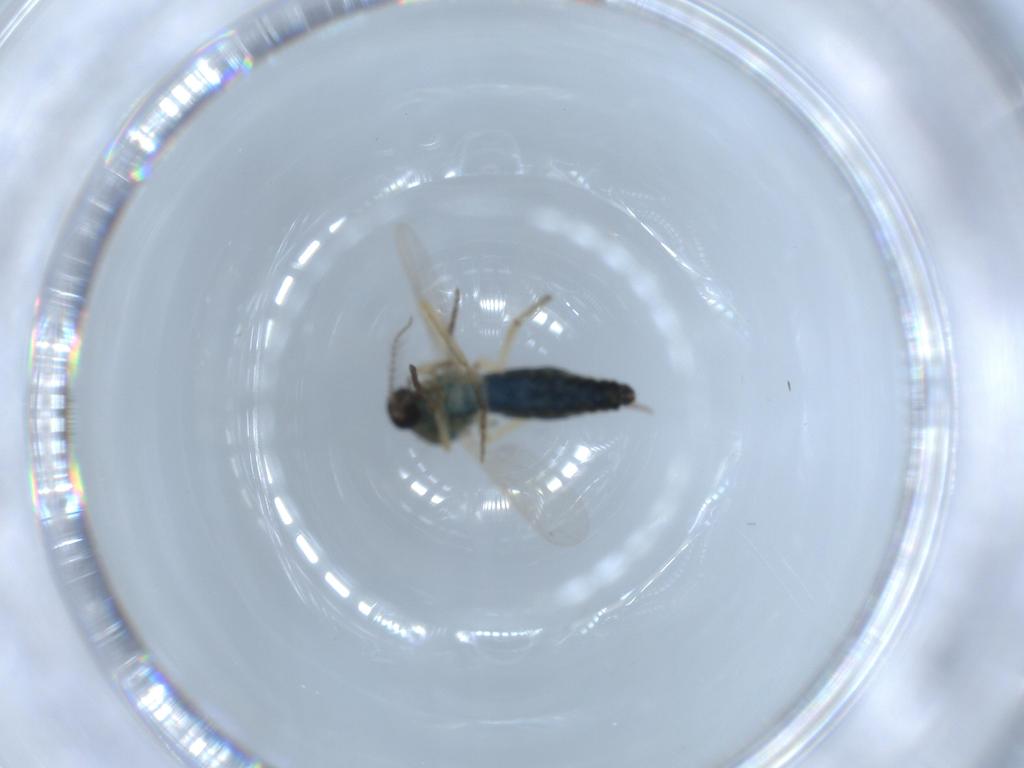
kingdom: Animalia
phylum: Arthropoda
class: Insecta
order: Diptera
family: Ceratopogonidae
